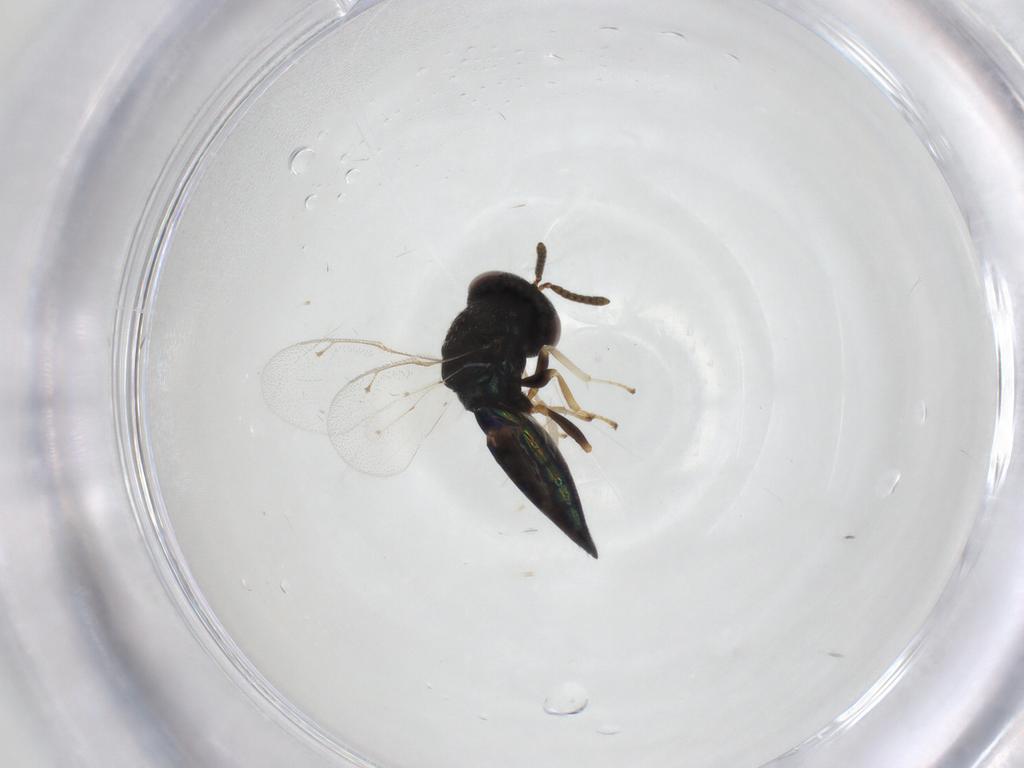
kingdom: Animalia
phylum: Arthropoda
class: Insecta
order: Hymenoptera
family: Pteromalidae
